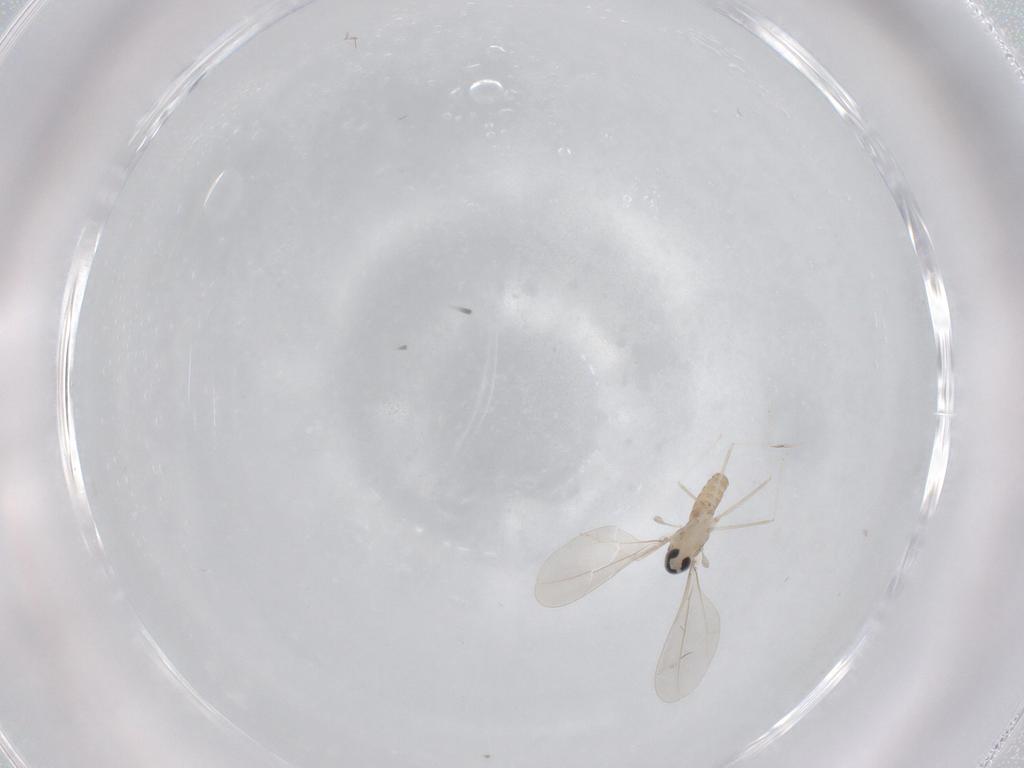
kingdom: Animalia
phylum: Arthropoda
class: Insecta
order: Diptera
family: Cecidomyiidae
